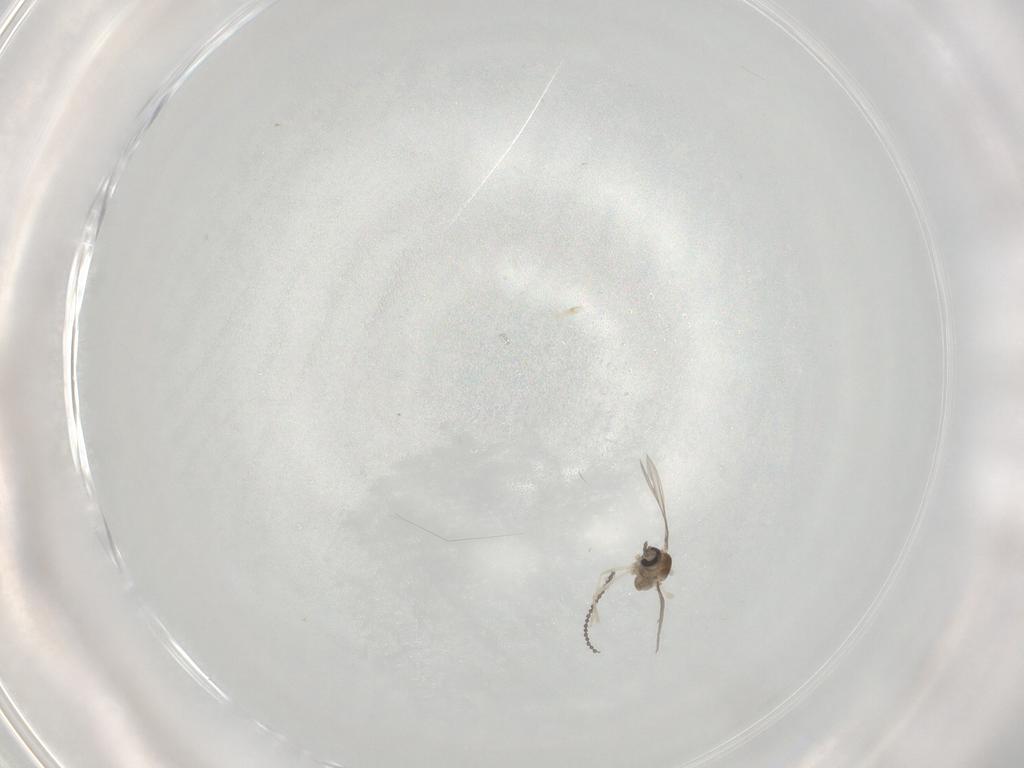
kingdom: Animalia
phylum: Arthropoda
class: Insecta
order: Diptera
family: Cecidomyiidae
